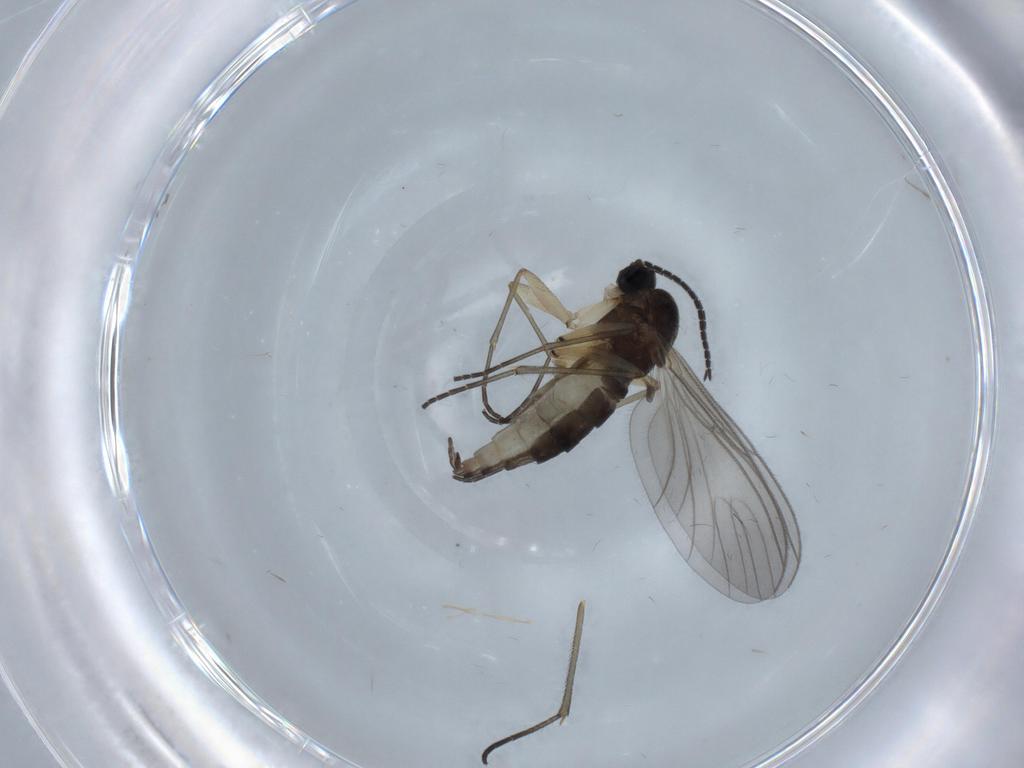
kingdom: Animalia
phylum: Arthropoda
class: Insecta
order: Diptera
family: Sciaridae
